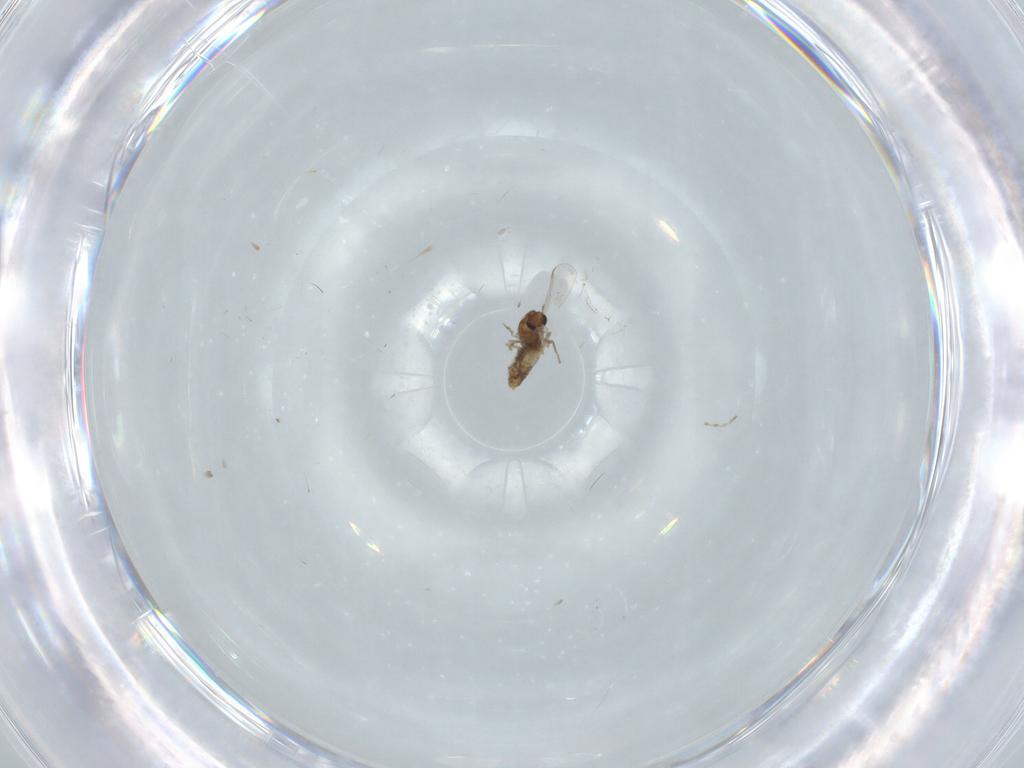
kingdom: Animalia
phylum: Arthropoda
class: Insecta
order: Diptera
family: Chironomidae
